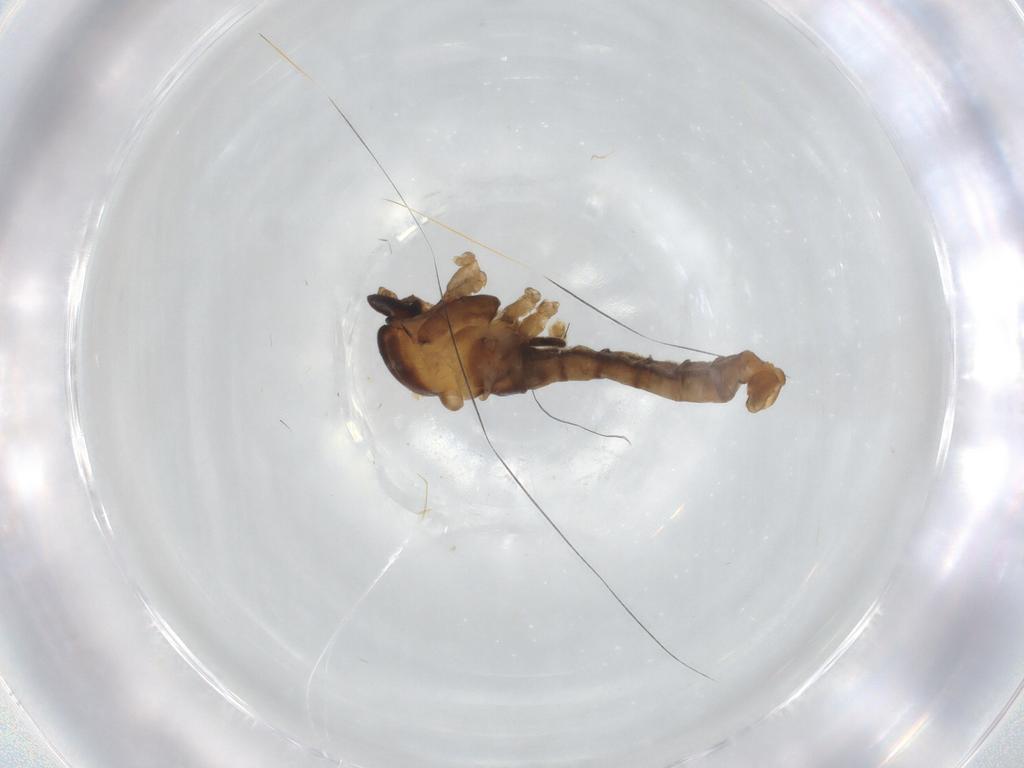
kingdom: Animalia
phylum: Arthropoda
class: Insecta
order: Diptera
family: Cecidomyiidae
